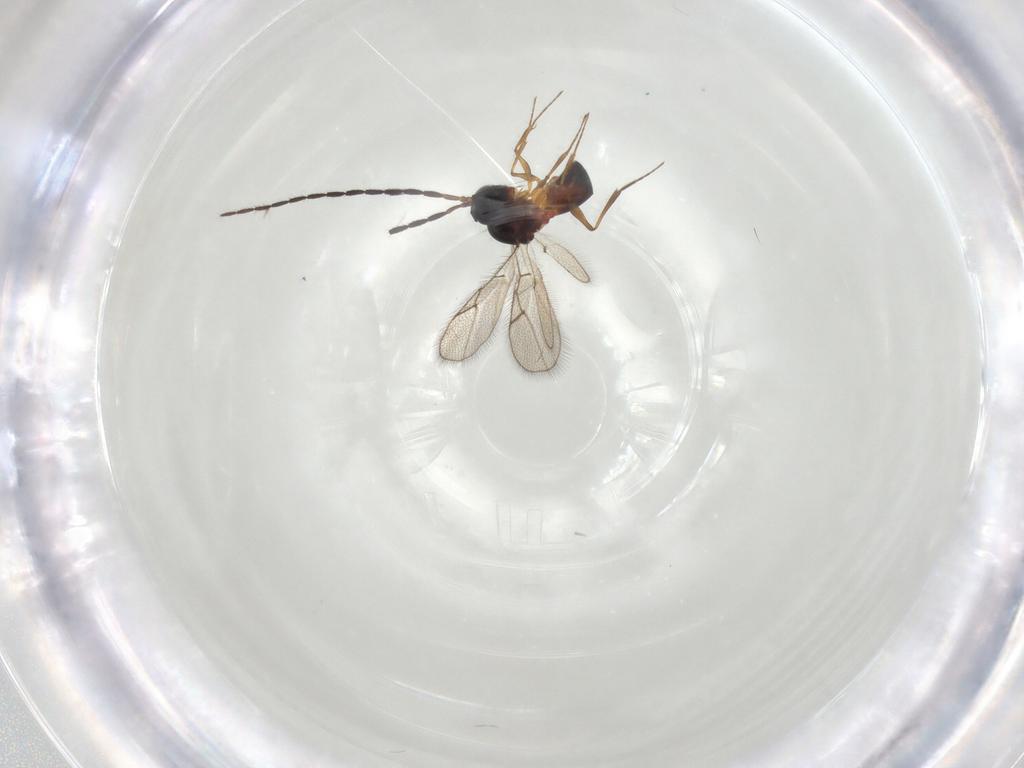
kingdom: Animalia
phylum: Arthropoda
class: Insecta
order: Hymenoptera
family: Figitidae
